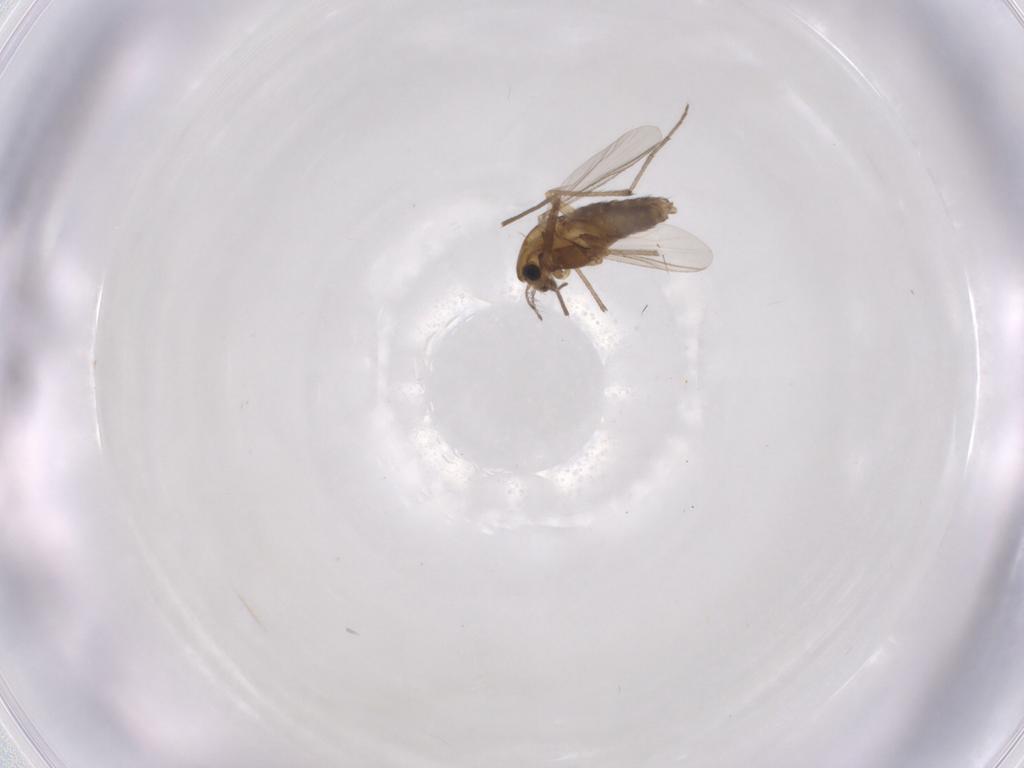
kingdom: Animalia
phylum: Arthropoda
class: Insecta
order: Diptera
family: Chironomidae
